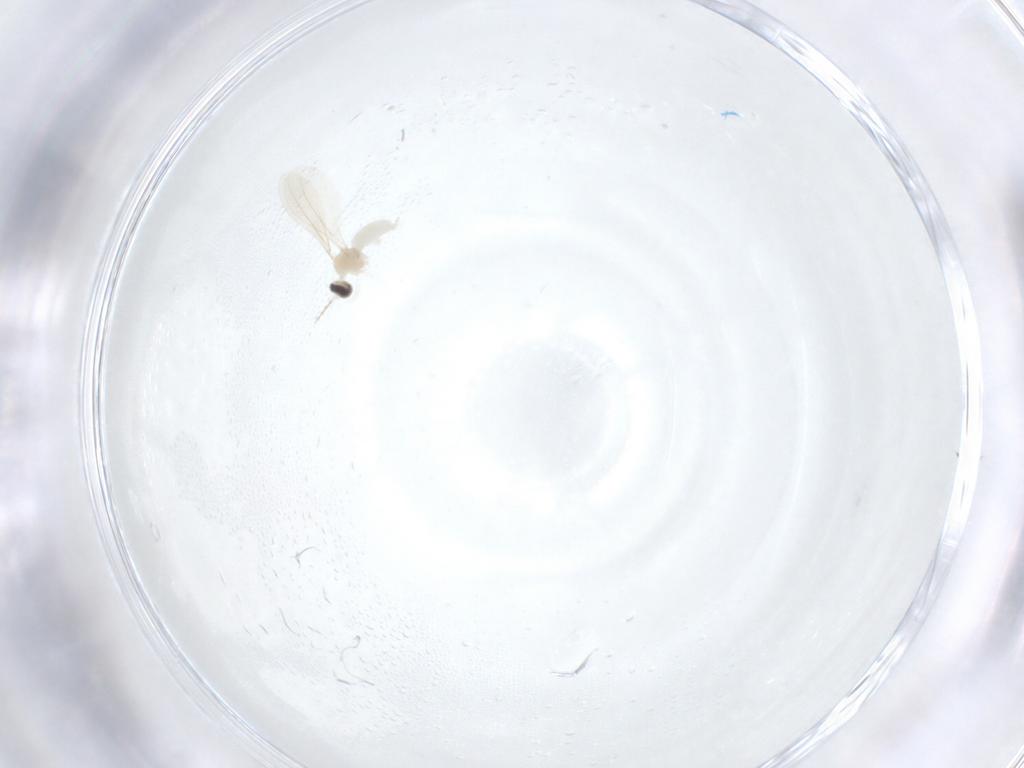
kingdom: Animalia
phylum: Arthropoda
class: Insecta
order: Diptera
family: Cecidomyiidae
